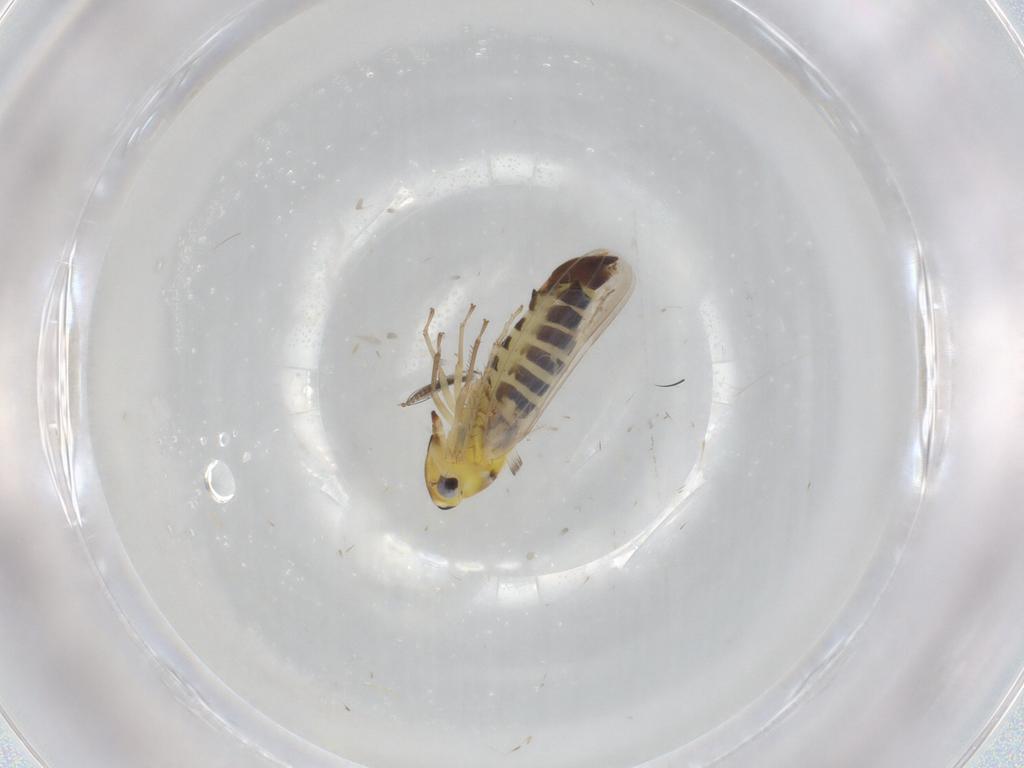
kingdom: Animalia
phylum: Arthropoda
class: Insecta
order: Hemiptera
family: Cicadellidae
